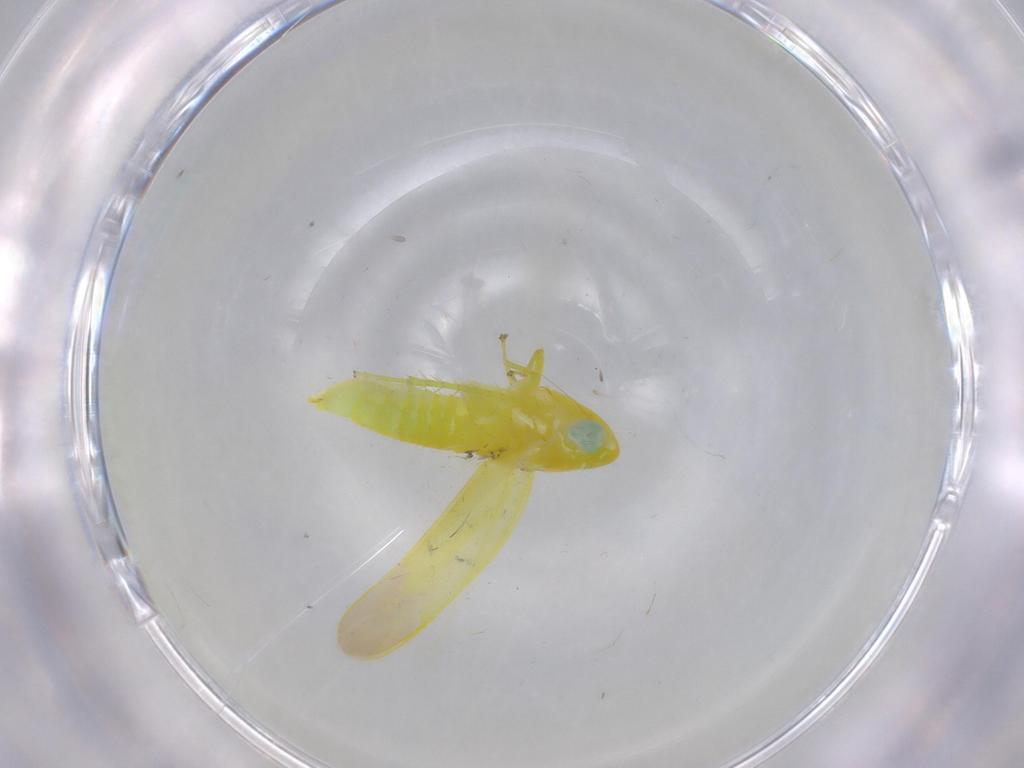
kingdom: Animalia
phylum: Arthropoda
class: Insecta
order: Hemiptera
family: Cicadellidae
